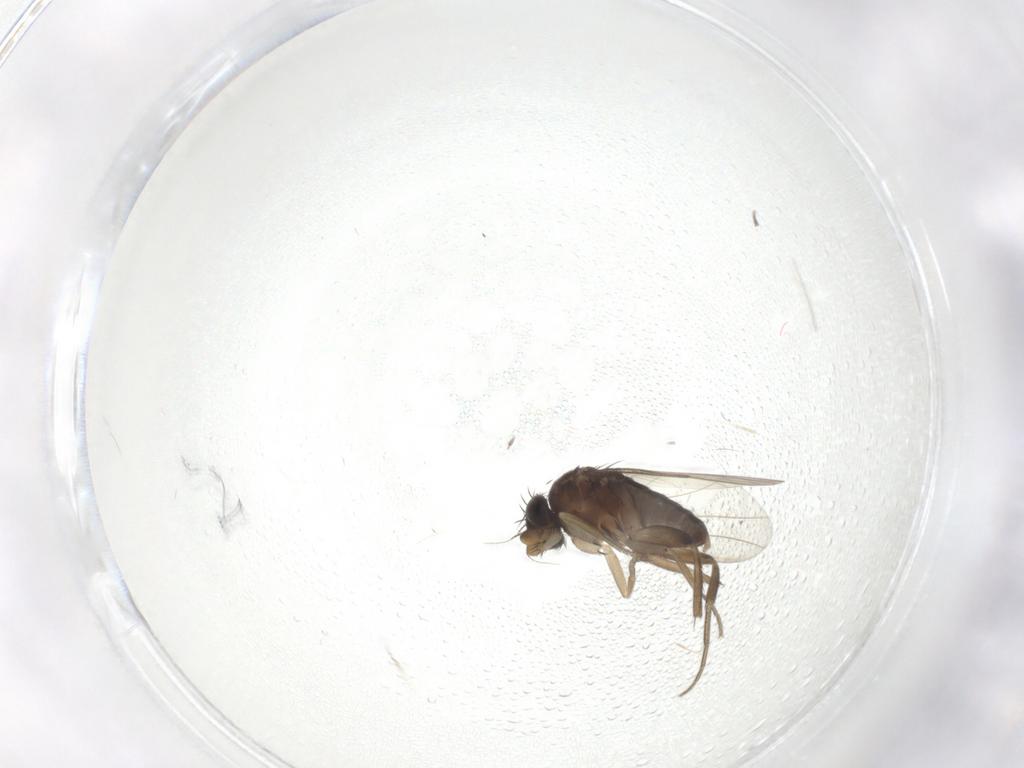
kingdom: Animalia
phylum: Arthropoda
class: Insecta
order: Diptera
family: Phoridae
